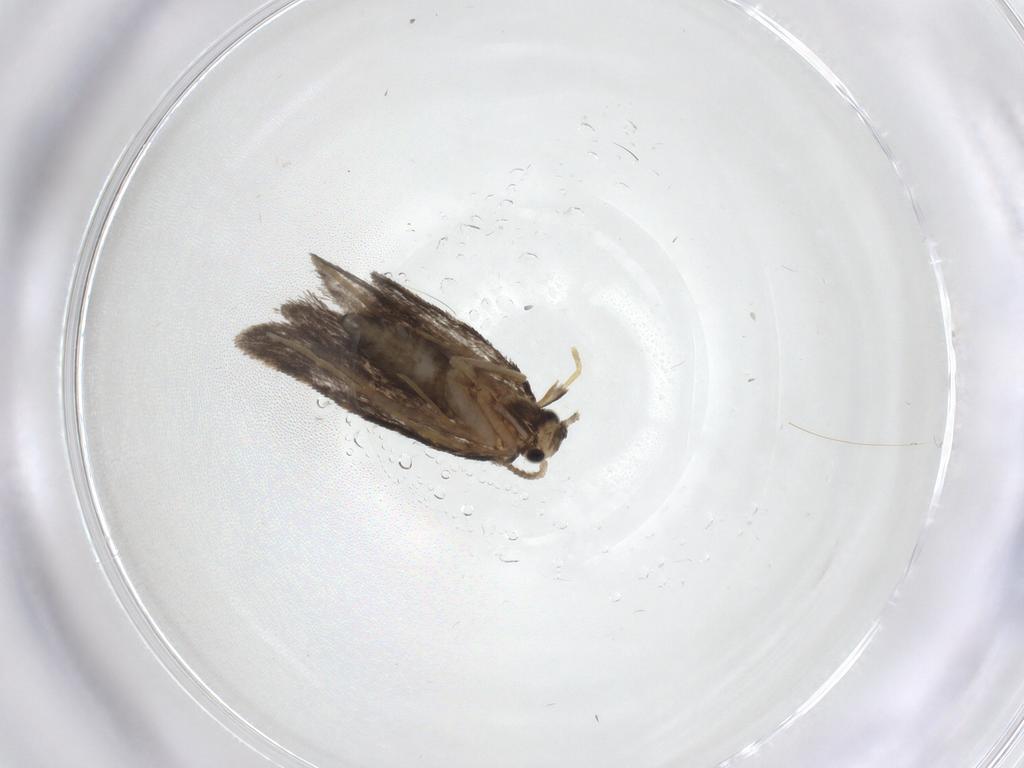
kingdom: Animalia
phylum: Arthropoda
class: Insecta
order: Lepidoptera
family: Psychidae
